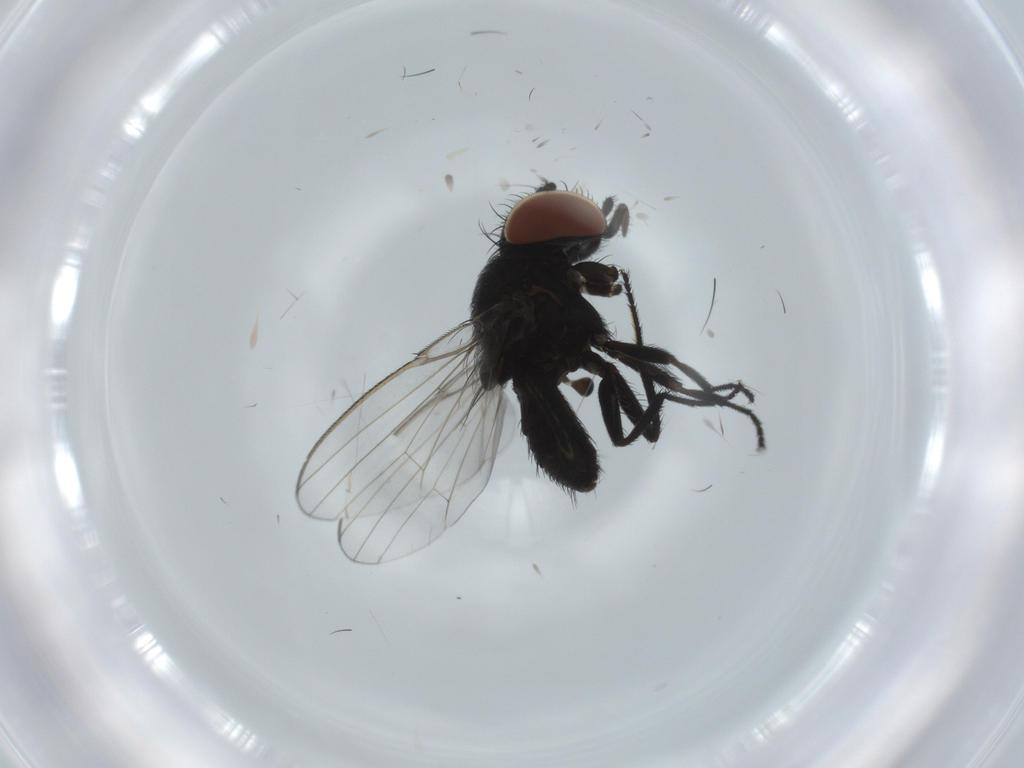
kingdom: Animalia
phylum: Arthropoda
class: Insecta
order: Diptera
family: Milichiidae
